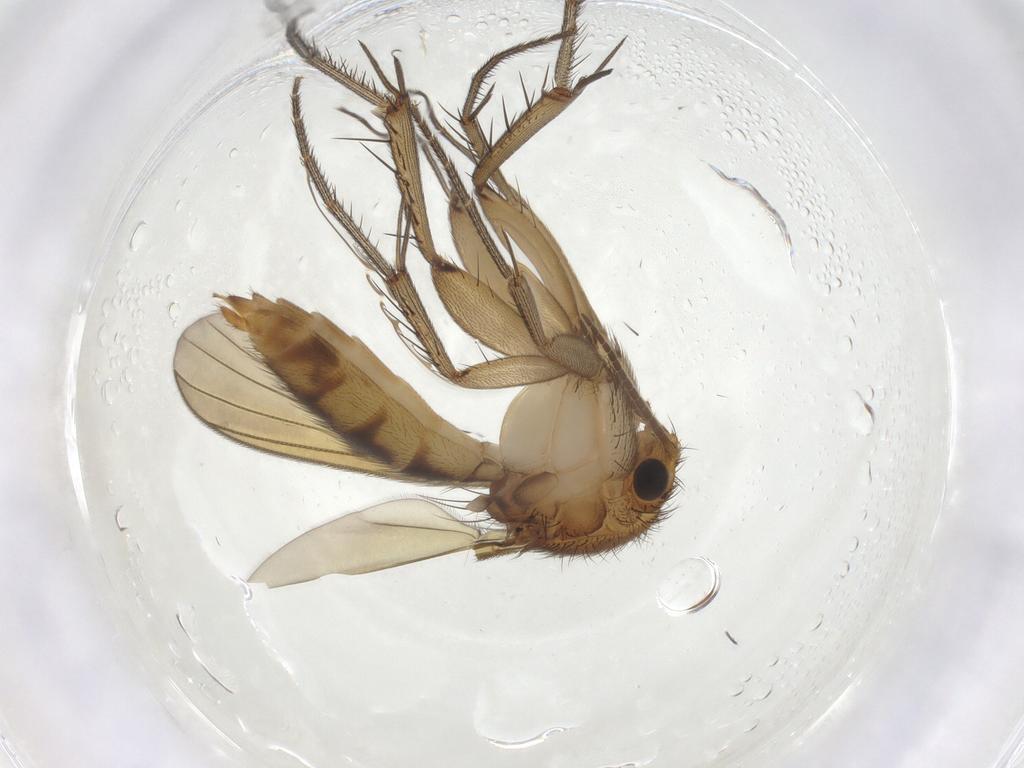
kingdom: Animalia
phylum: Arthropoda
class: Insecta
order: Diptera
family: Mycetophilidae
